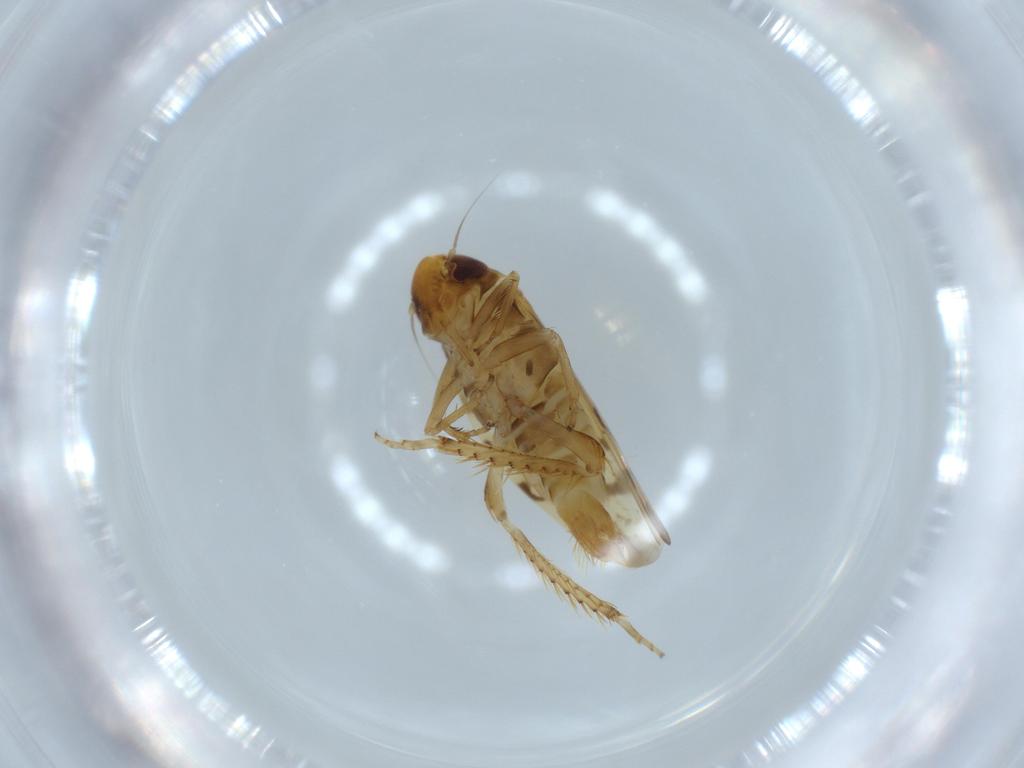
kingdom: Animalia
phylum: Arthropoda
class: Insecta
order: Hemiptera
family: Cicadellidae
